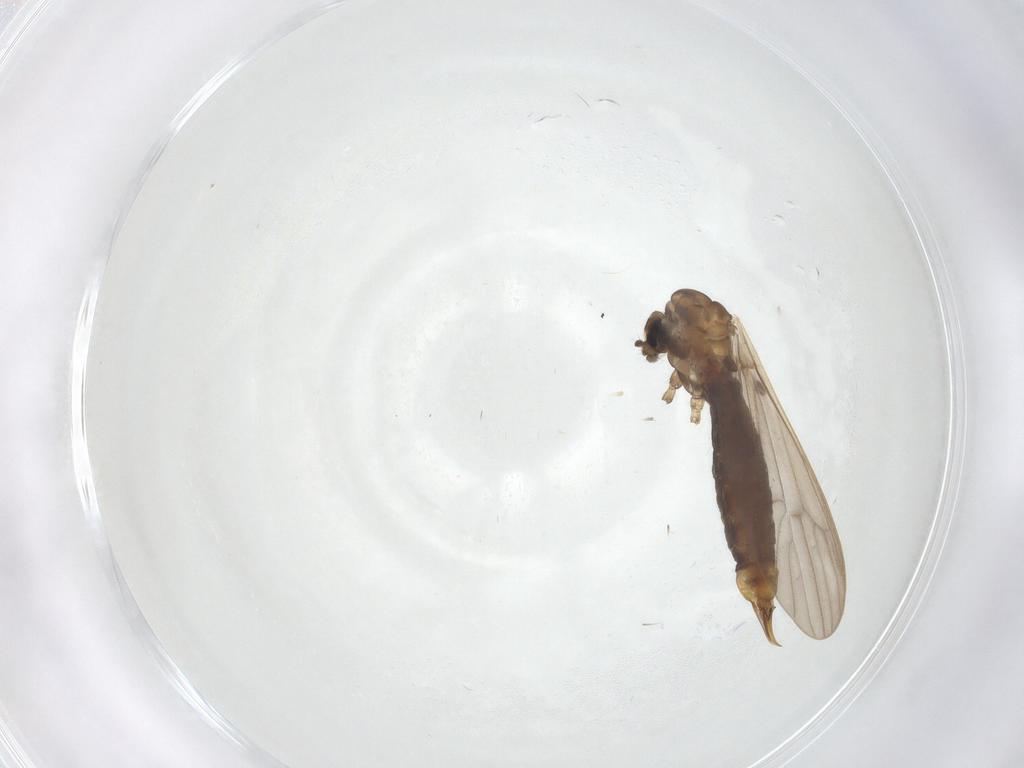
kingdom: Animalia
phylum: Arthropoda
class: Insecta
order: Diptera
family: Limoniidae
